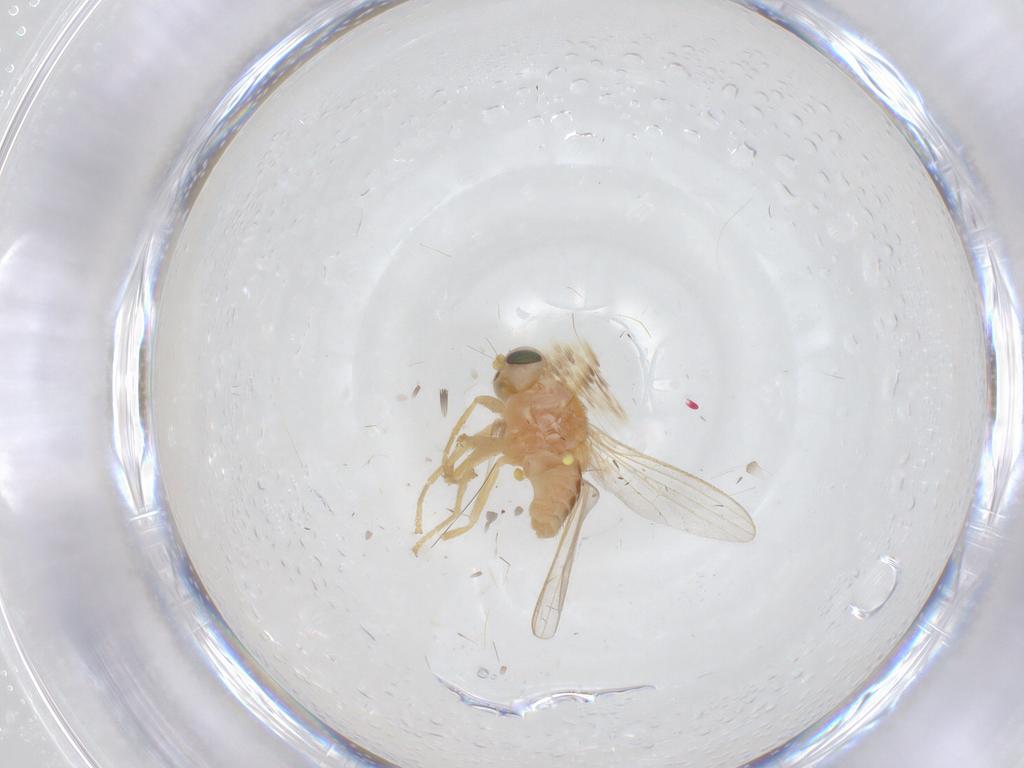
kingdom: Animalia
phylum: Arthropoda
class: Insecta
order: Diptera
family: Chyromyidae
